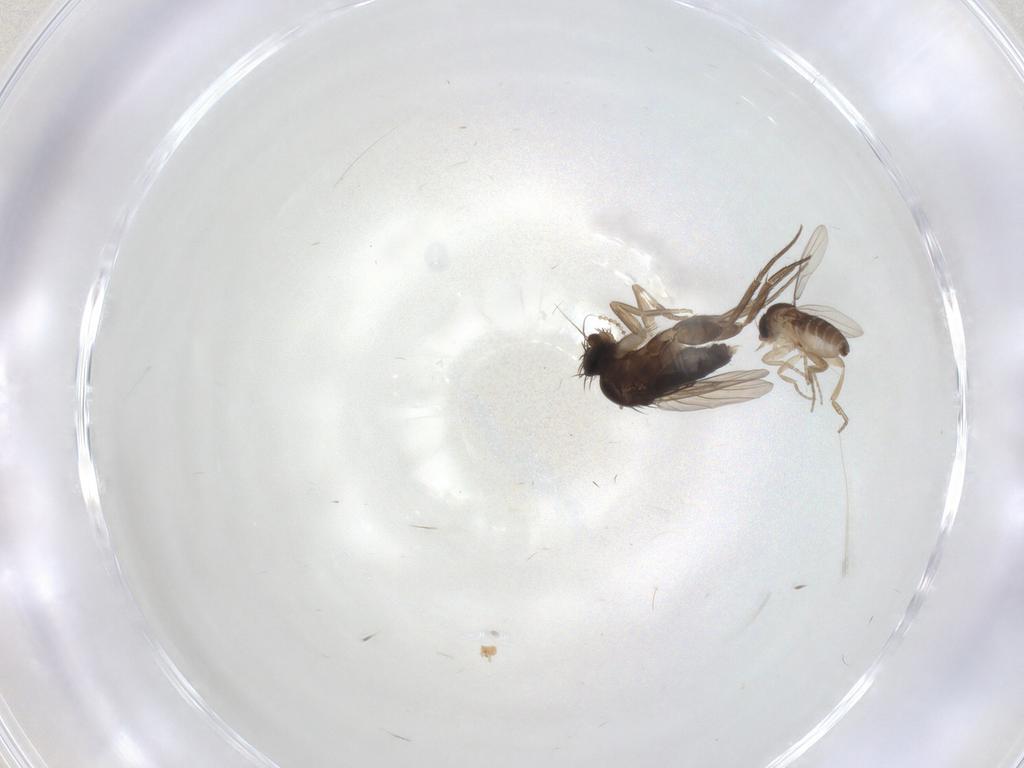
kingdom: Animalia
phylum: Arthropoda
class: Insecta
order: Diptera
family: Phoridae
